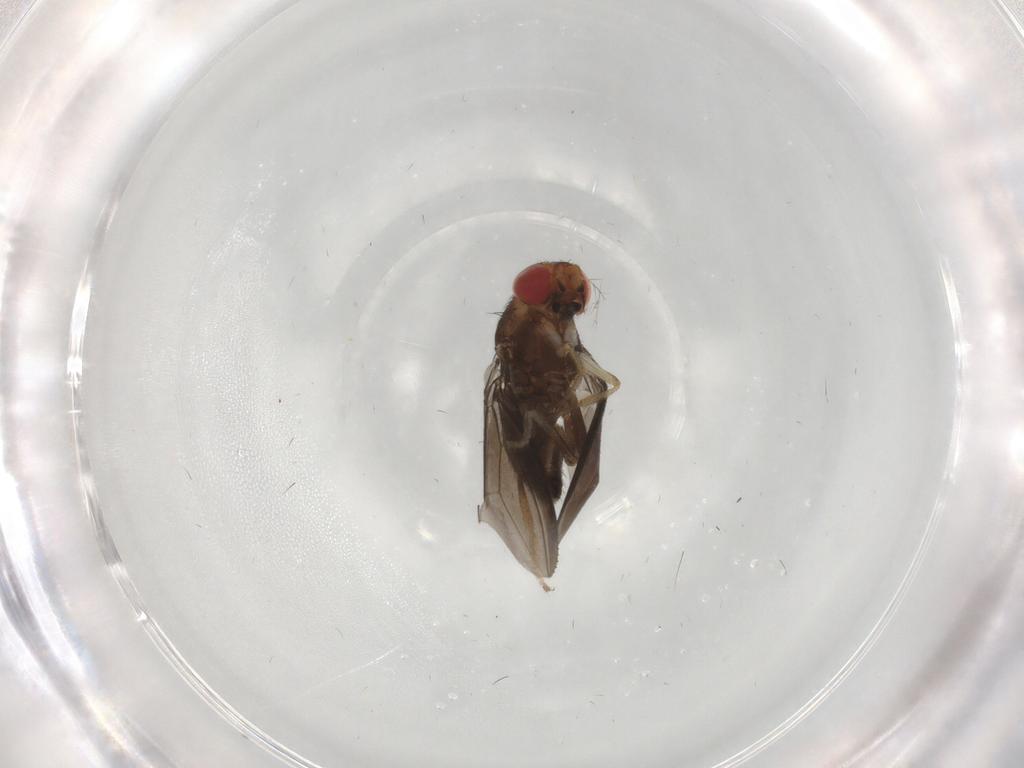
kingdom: Animalia
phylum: Arthropoda
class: Insecta
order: Diptera
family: Drosophilidae
